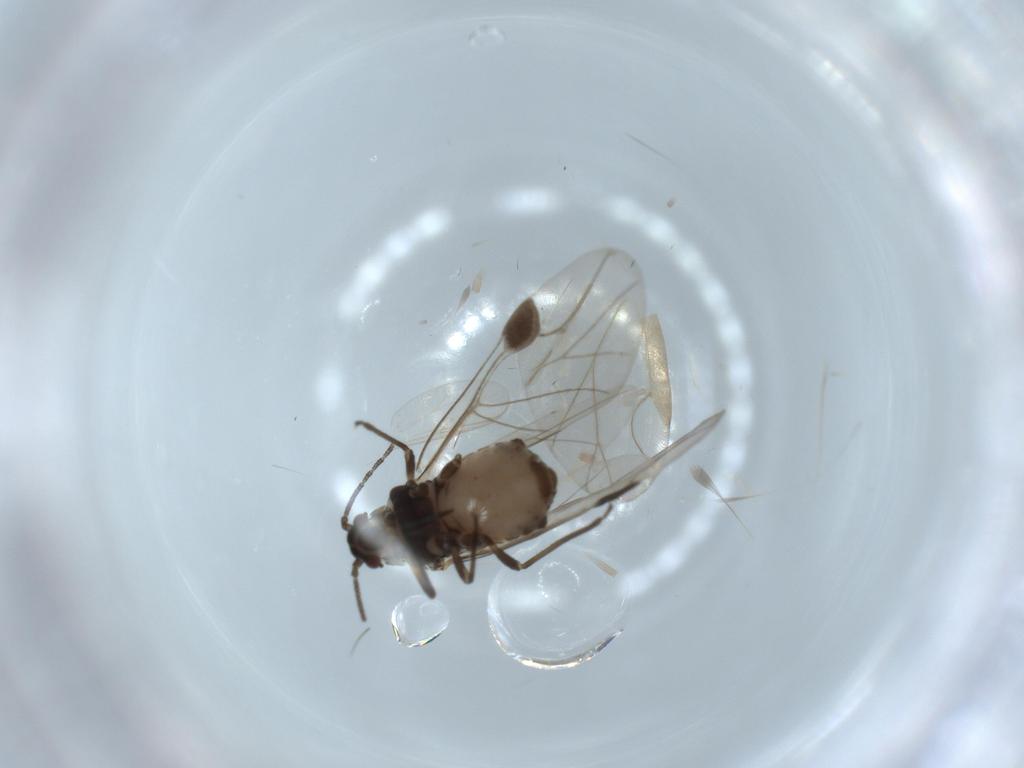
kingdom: Animalia
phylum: Arthropoda
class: Insecta
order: Hemiptera
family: Aphididae
